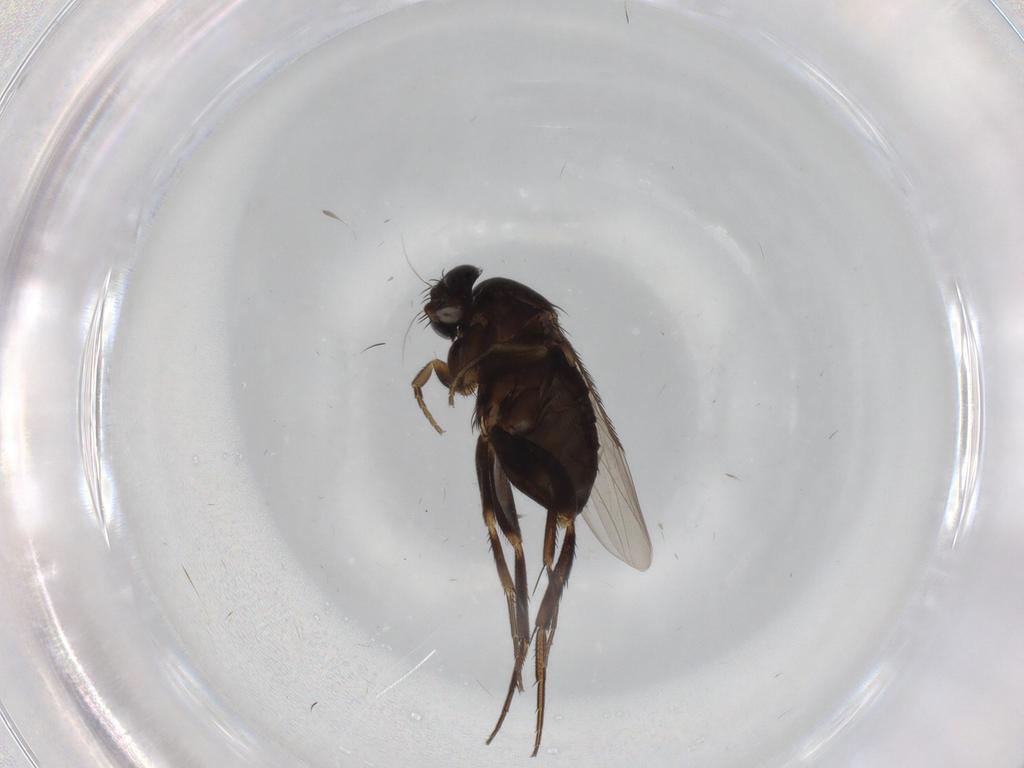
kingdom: Animalia
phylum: Arthropoda
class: Insecta
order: Diptera
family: Phoridae
